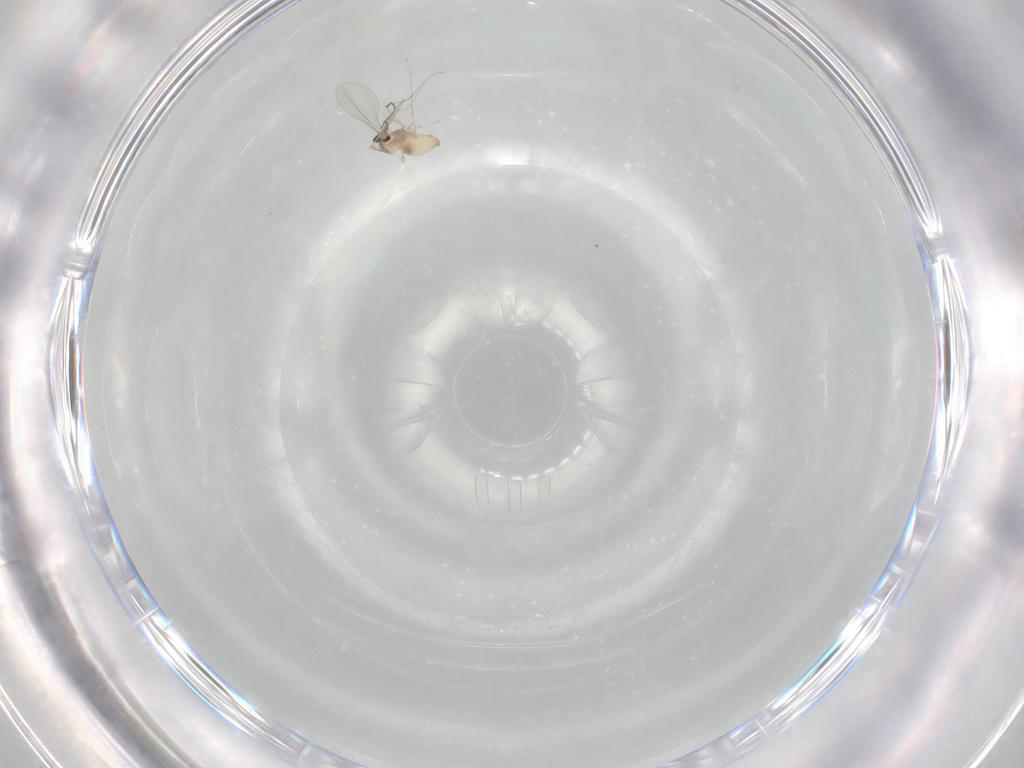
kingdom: Animalia
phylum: Arthropoda
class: Insecta
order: Diptera
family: Cecidomyiidae
